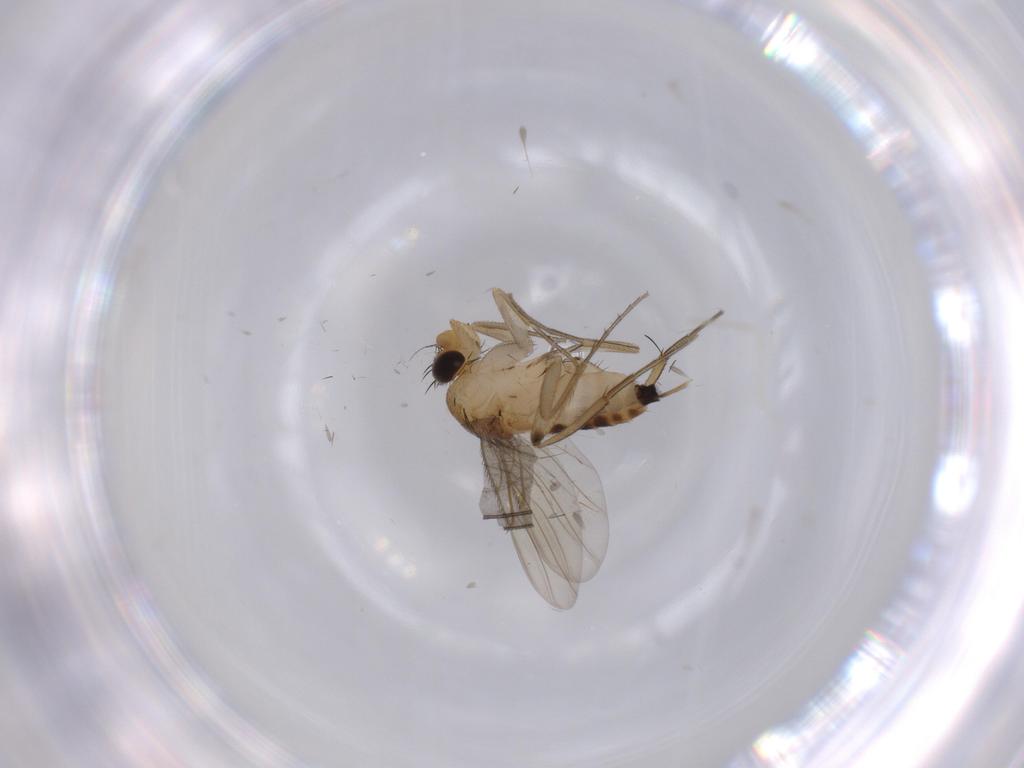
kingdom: Animalia
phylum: Arthropoda
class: Insecta
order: Diptera
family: Phoridae
